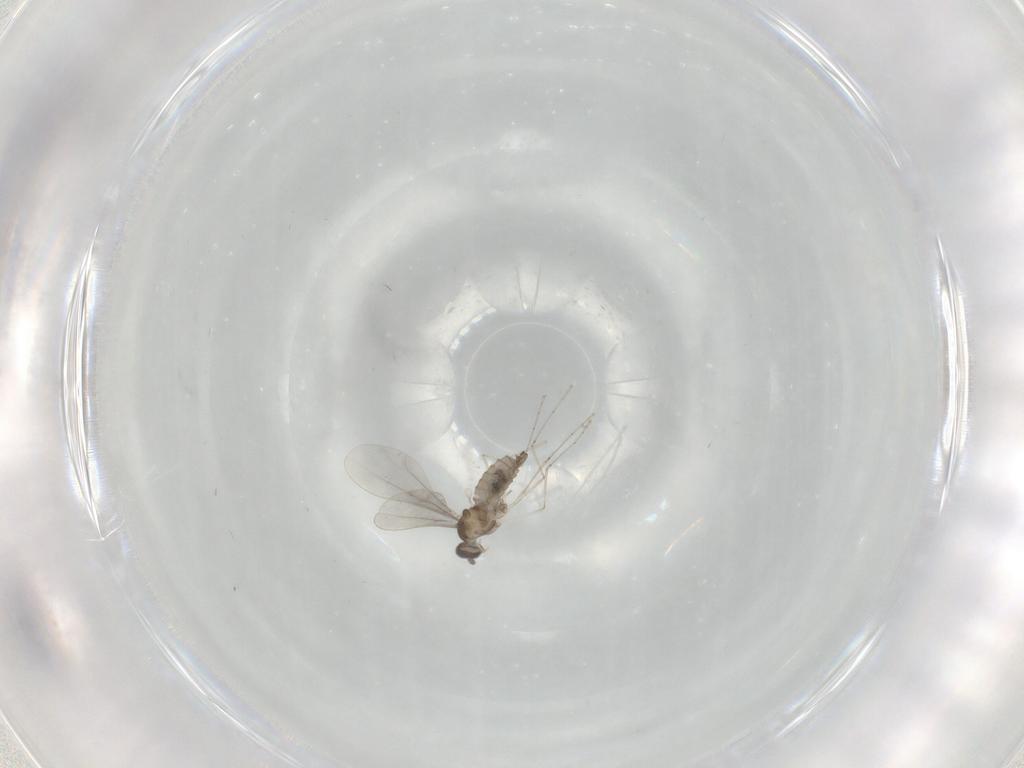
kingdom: Animalia
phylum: Arthropoda
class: Insecta
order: Diptera
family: Cecidomyiidae
